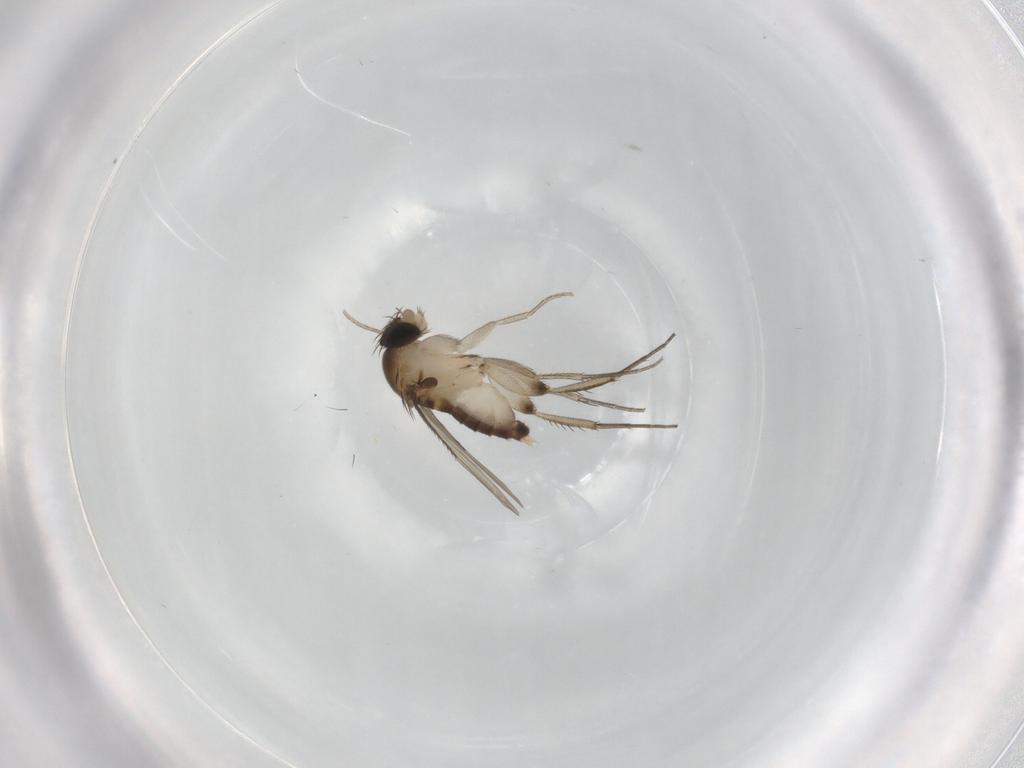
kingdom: Animalia
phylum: Arthropoda
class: Insecta
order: Diptera
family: Phoridae
